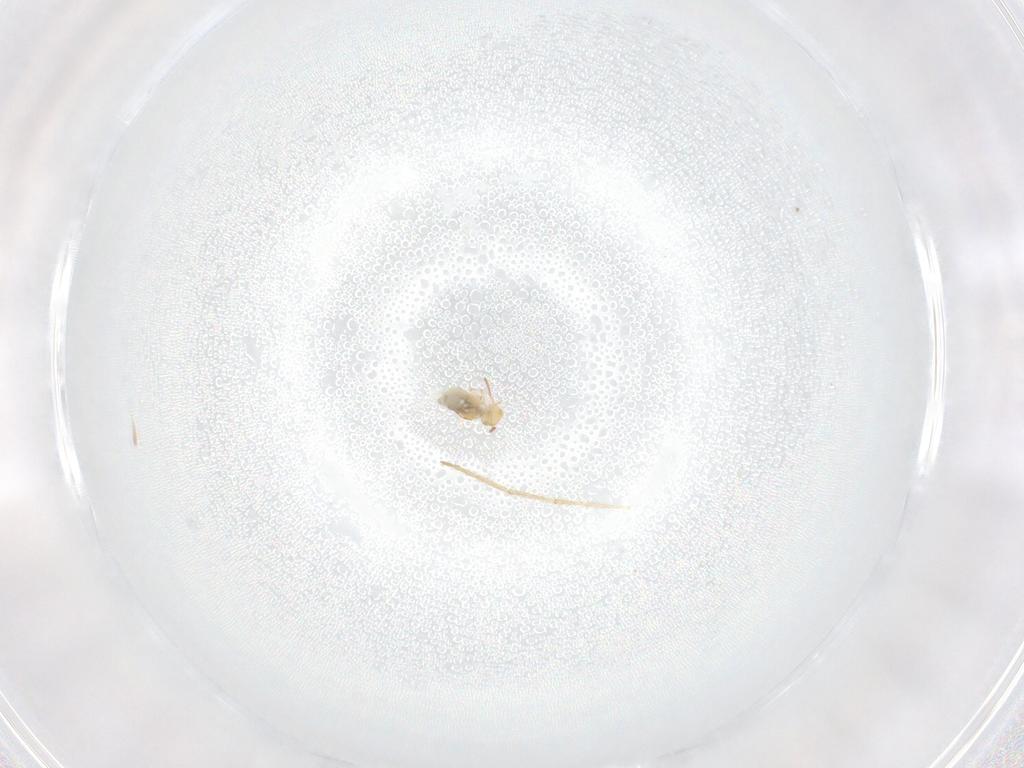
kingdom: Animalia
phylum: Arthropoda
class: Collembola
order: Symphypleona
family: Bourletiellidae
